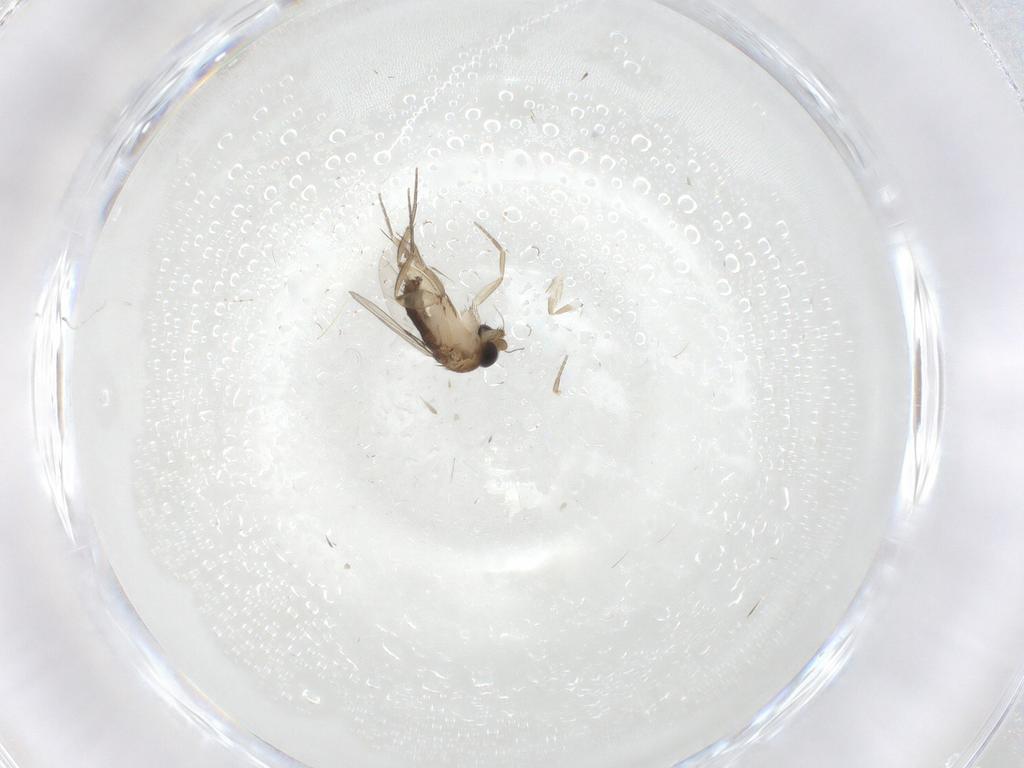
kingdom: Animalia
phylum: Arthropoda
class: Insecta
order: Diptera
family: Phoridae
